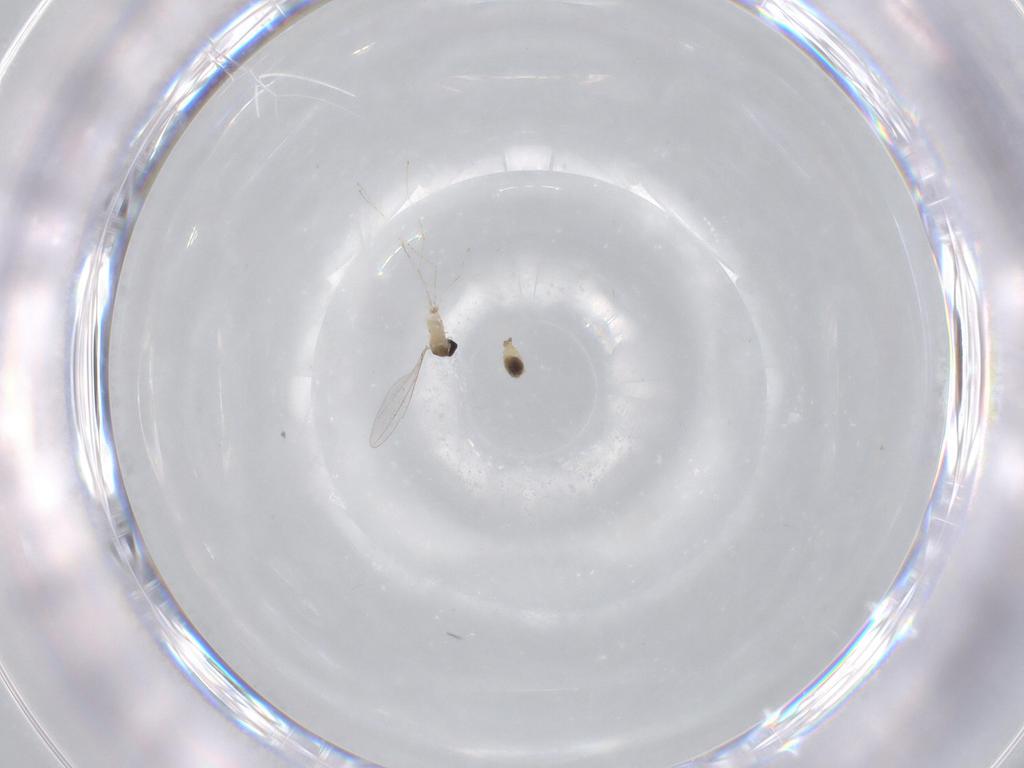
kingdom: Animalia
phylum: Arthropoda
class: Insecta
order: Diptera
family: Cecidomyiidae
